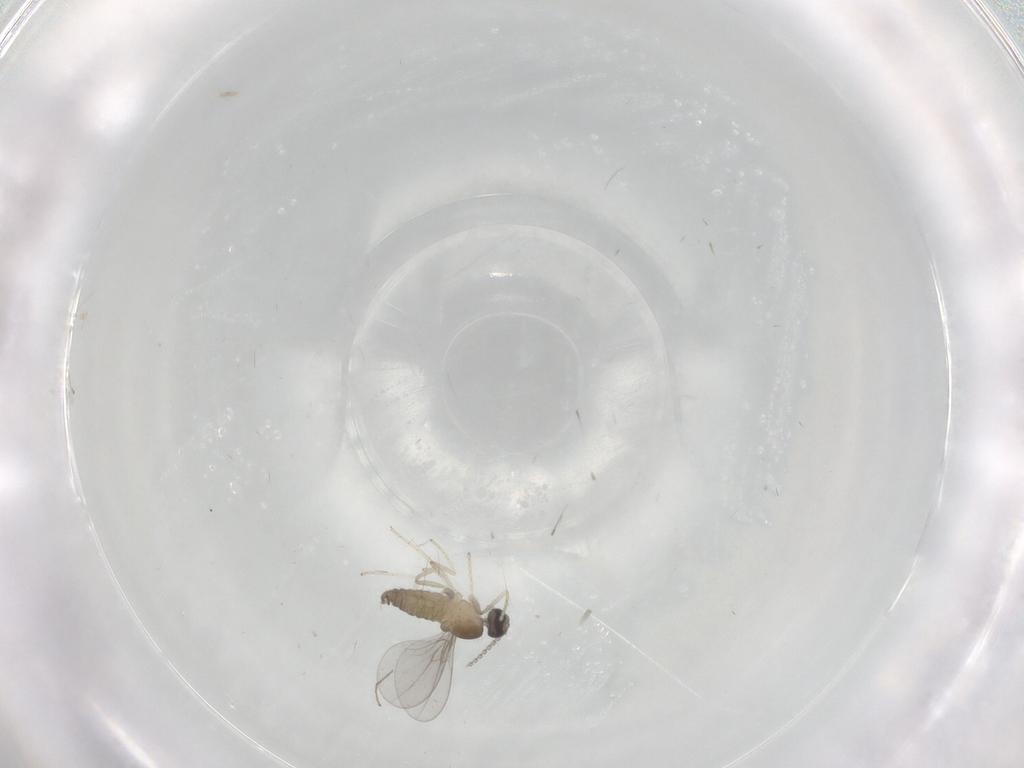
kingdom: Animalia
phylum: Arthropoda
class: Insecta
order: Diptera
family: Cecidomyiidae
